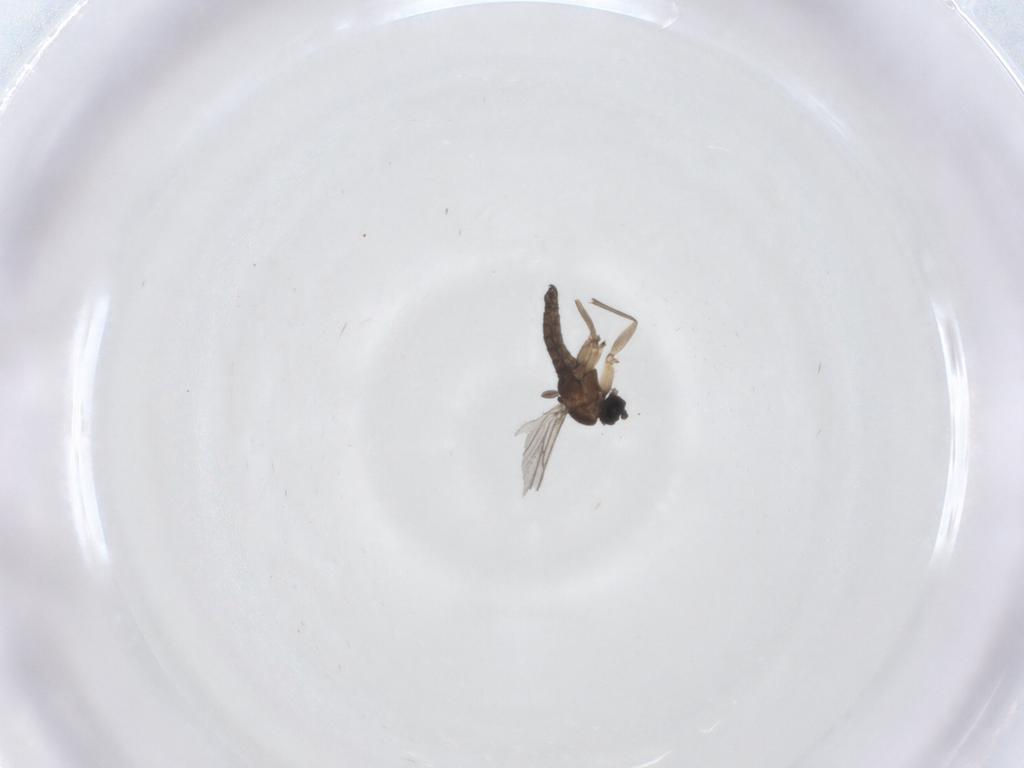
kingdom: Animalia
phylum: Arthropoda
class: Insecta
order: Diptera
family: Sciaridae
